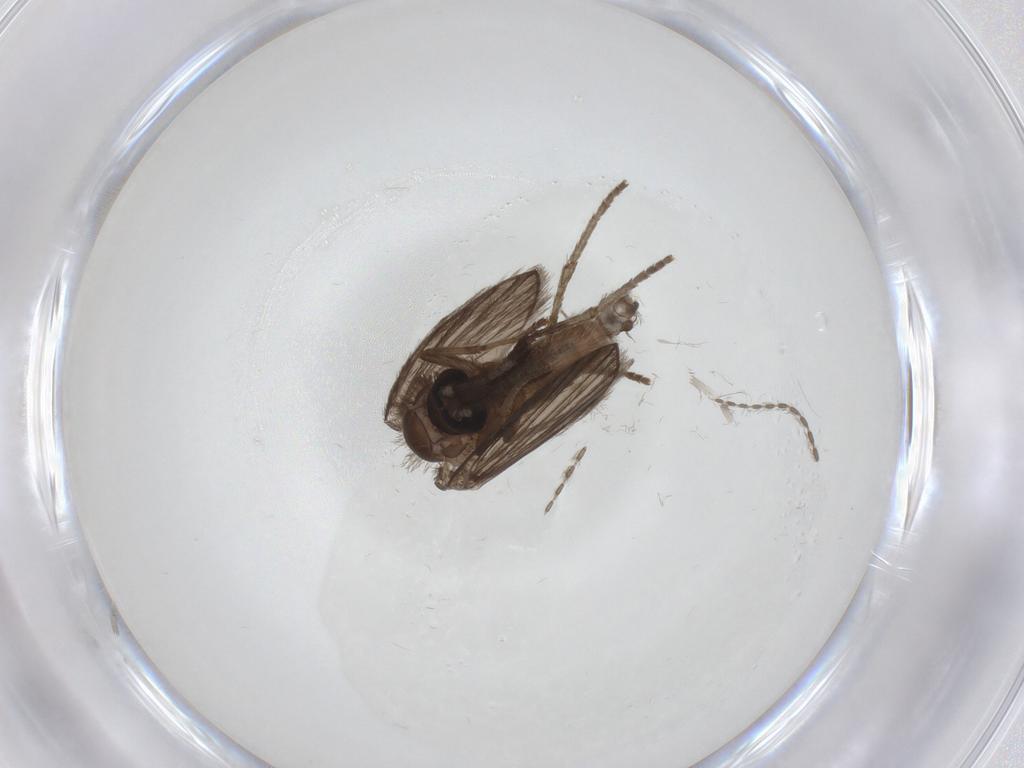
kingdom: Animalia
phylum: Arthropoda
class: Insecta
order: Diptera
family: Psychodidae
